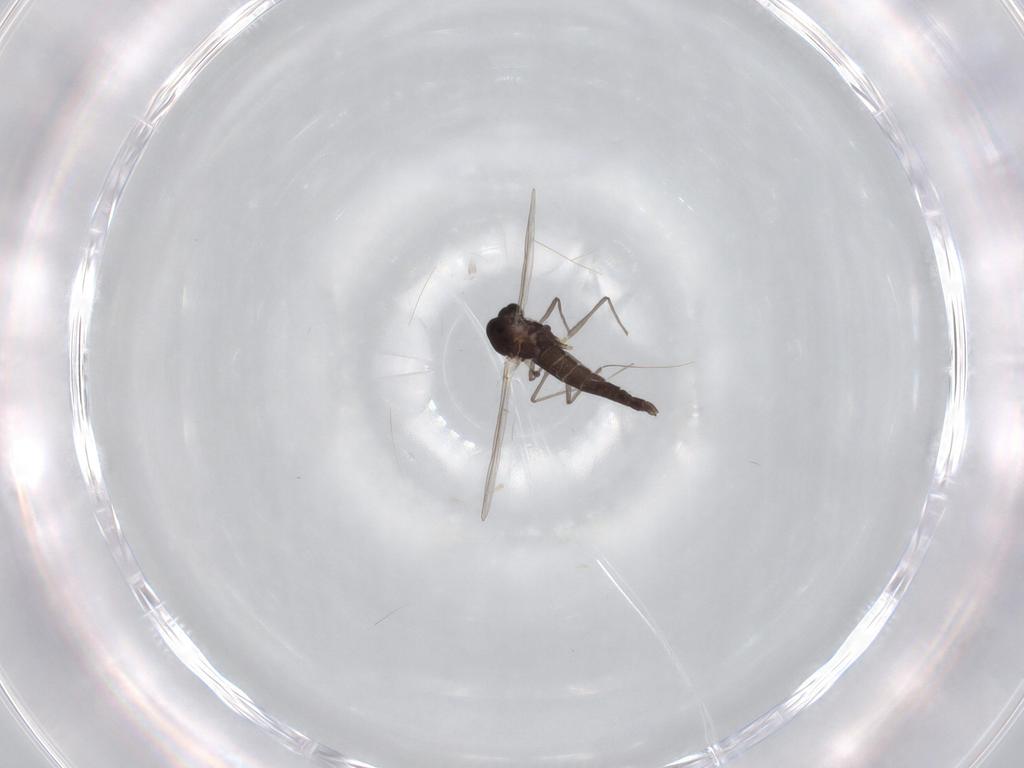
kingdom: Animalia
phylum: Arthropoda
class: Insecta
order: Diptera
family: Chironomidae
